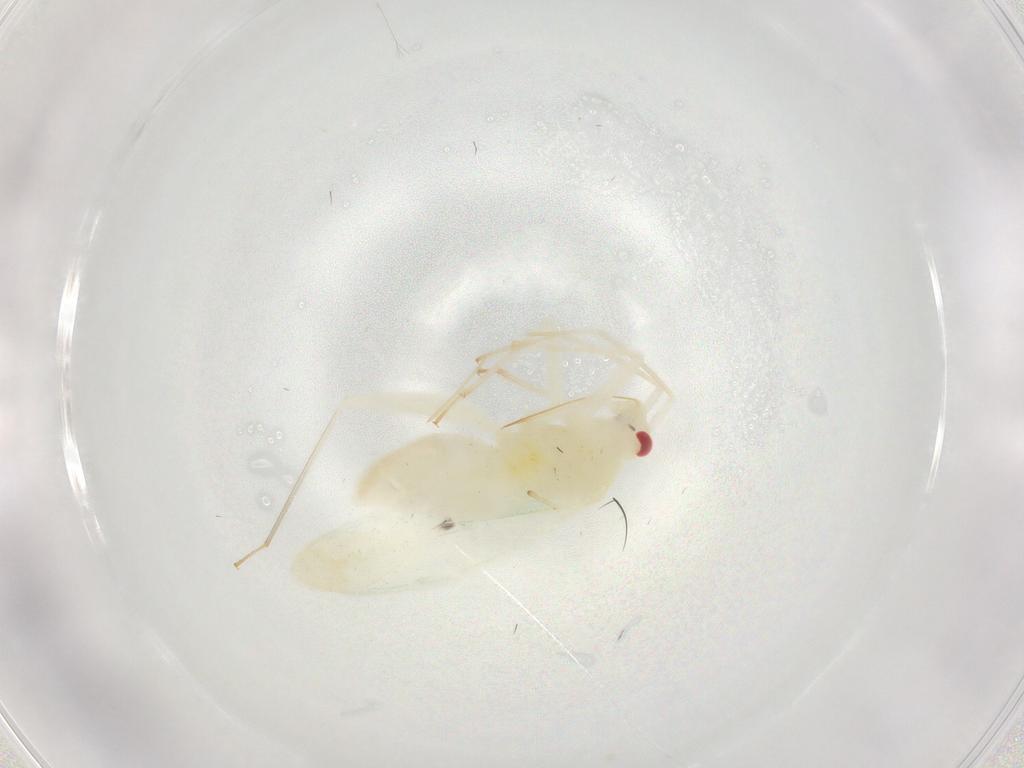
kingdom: Animalia
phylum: Arthropoda
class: Insecta
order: Hemiptera
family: Miridae
